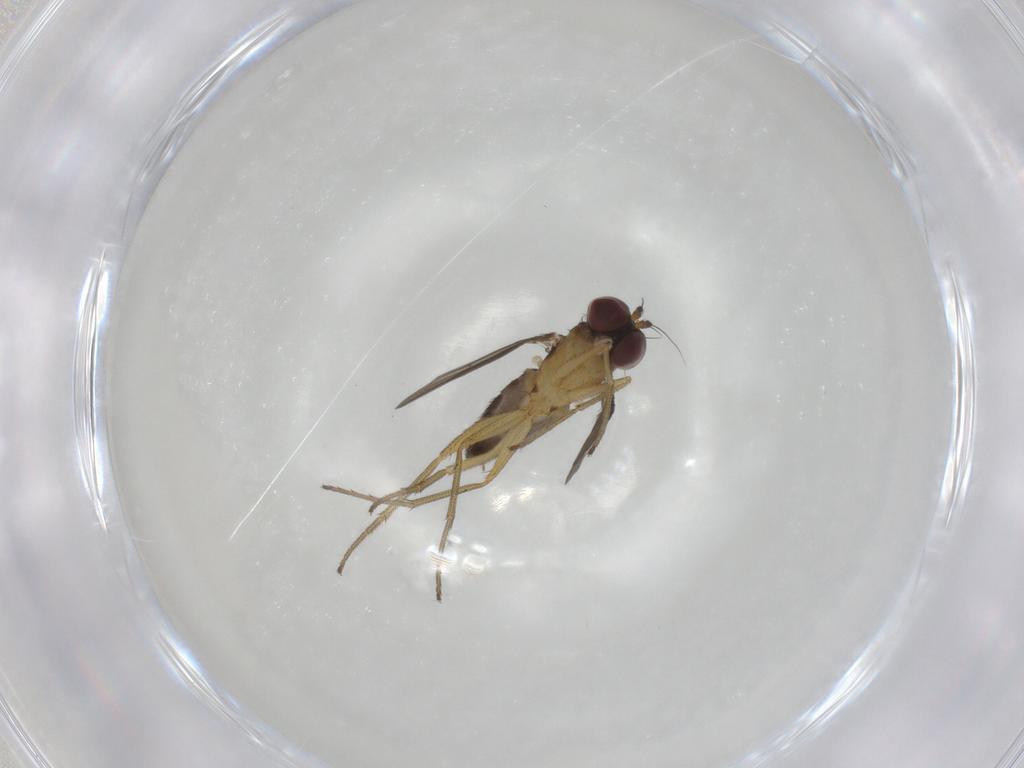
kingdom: Animalia
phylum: Arthropoda
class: Insecta
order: Diptera
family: Dolichopodidae
